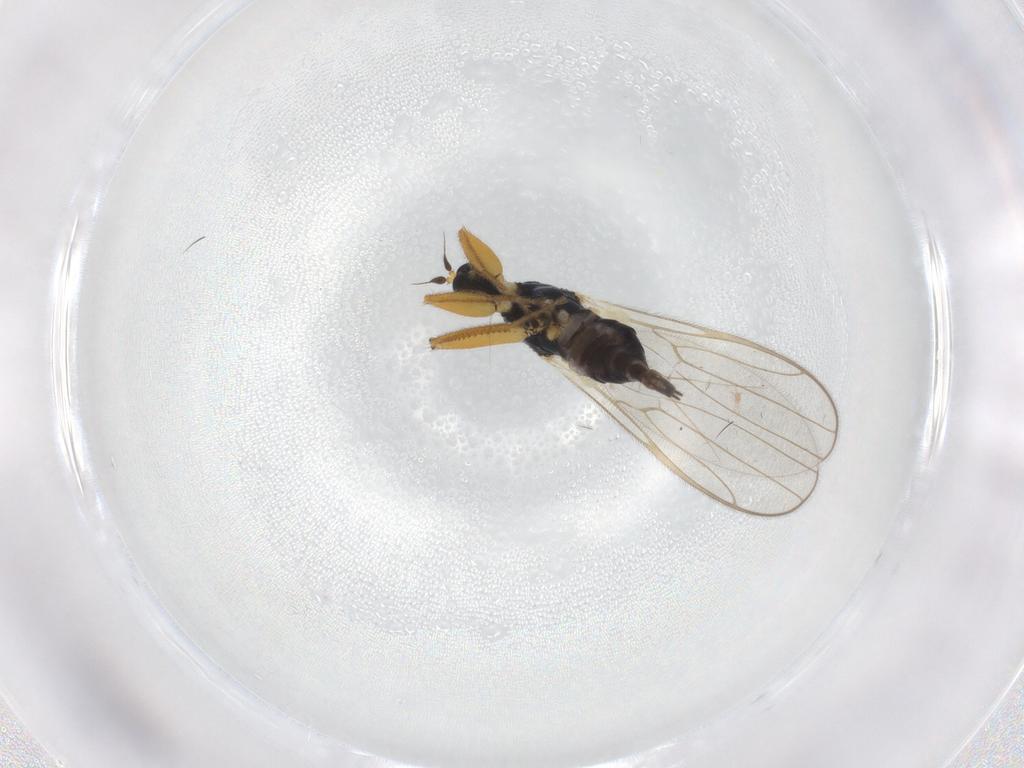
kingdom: Animalia
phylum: Arthropoda
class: Insecta
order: Diptera
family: Hybotidae
